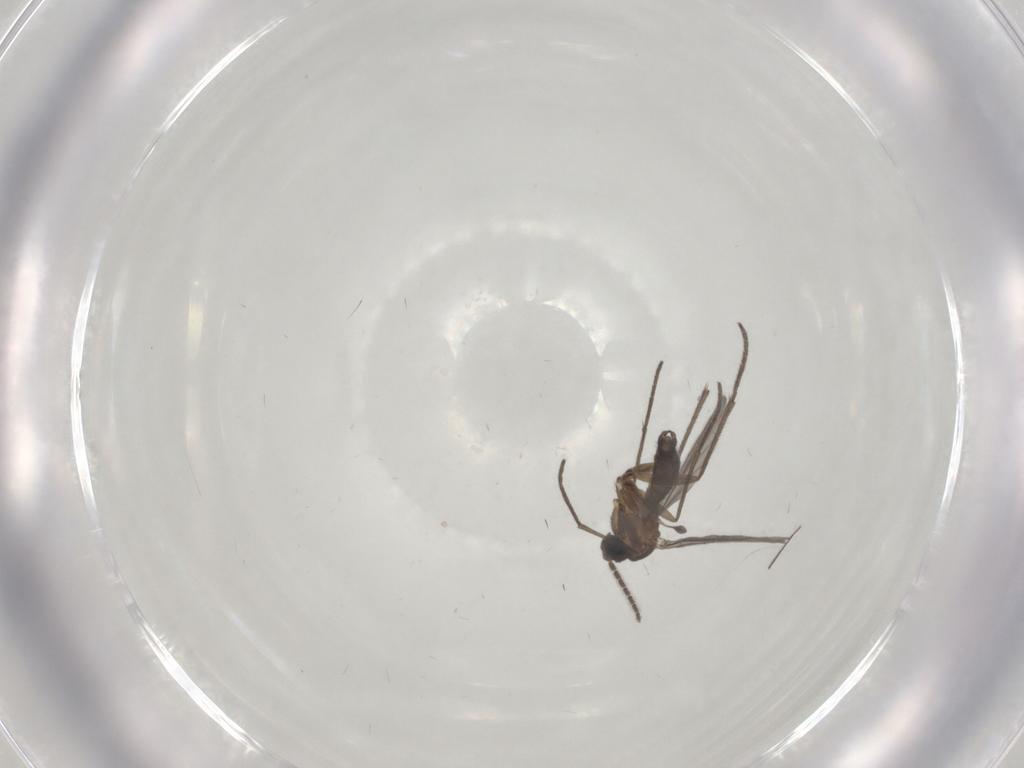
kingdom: Animalia
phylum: Arthropoda
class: Insecta
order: Diptera
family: Sciaridae
